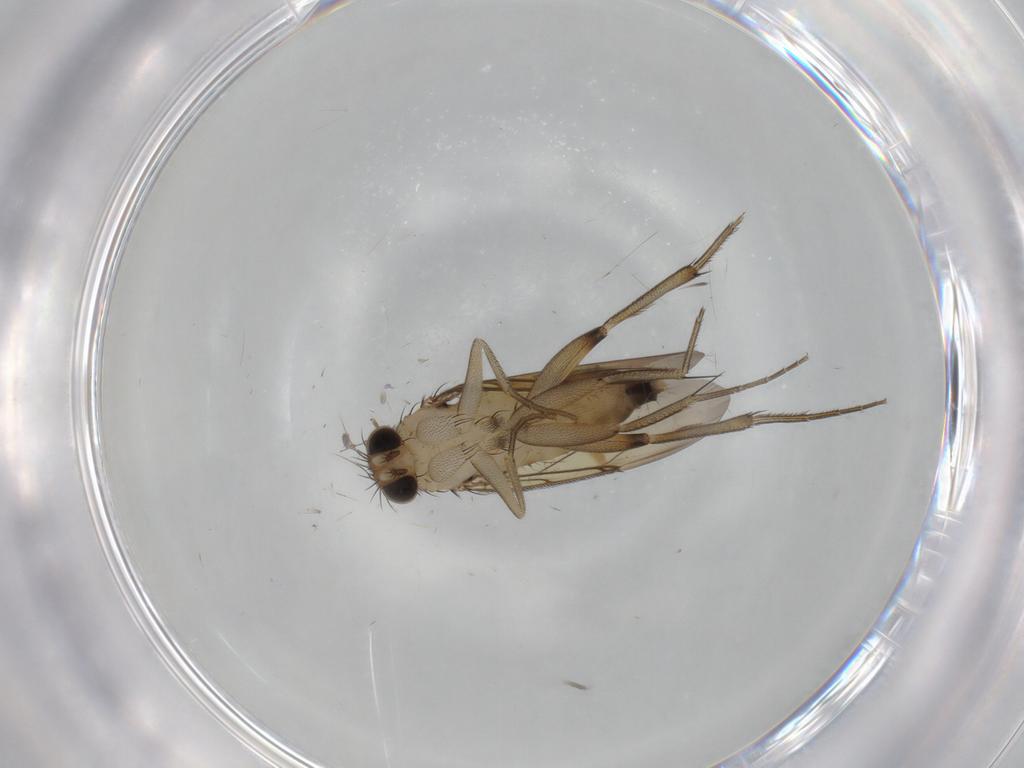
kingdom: Animalia
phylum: Arthropoda
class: Insecta
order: Diptera
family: Phoridae
